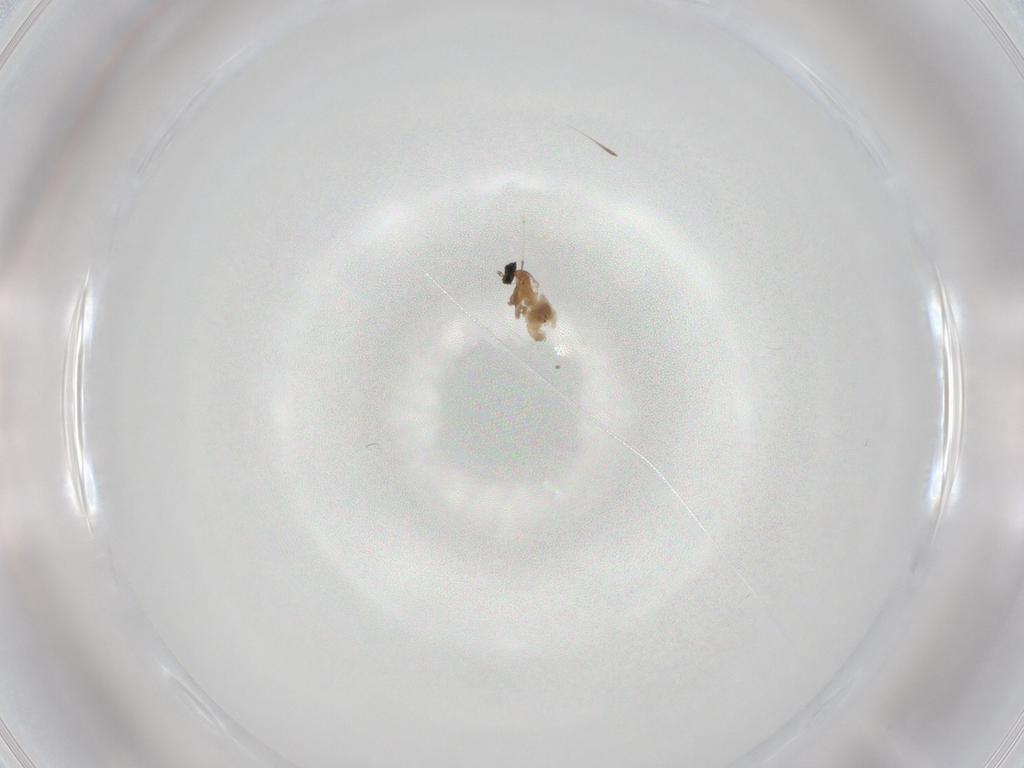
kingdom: Animalia
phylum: Arthropoda
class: Insecta
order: Diptera
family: Cecidomyiidae
